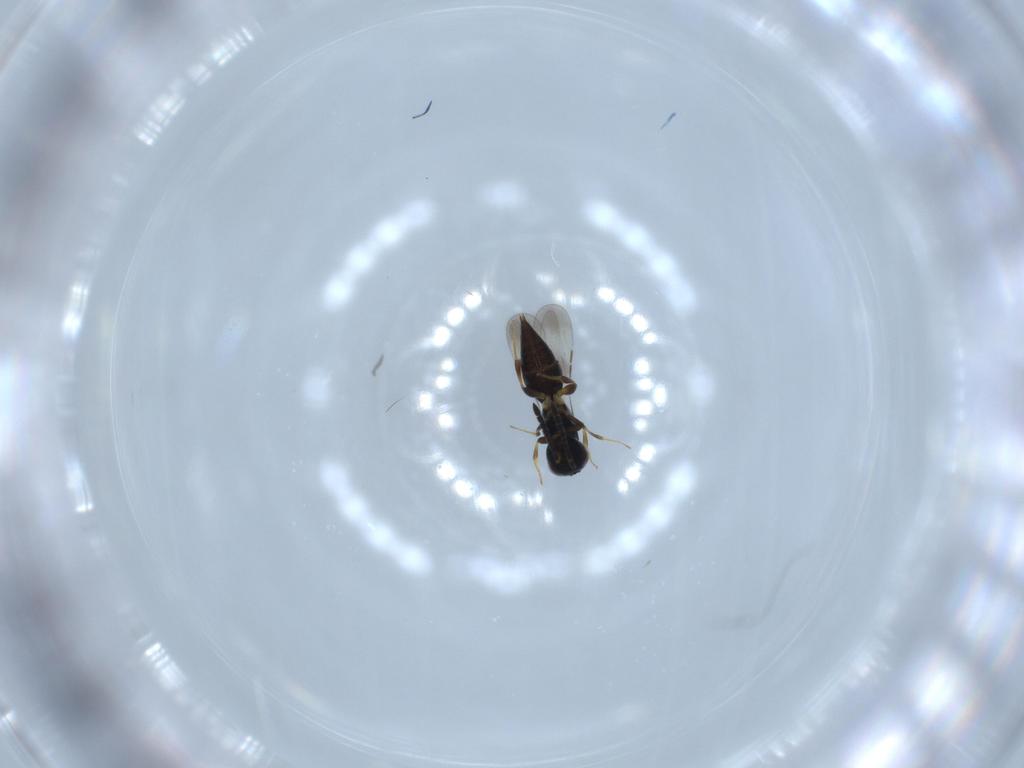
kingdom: Animalia
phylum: Arthropoda
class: Insecta
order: Hymenoptera
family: Ceraphronidae
